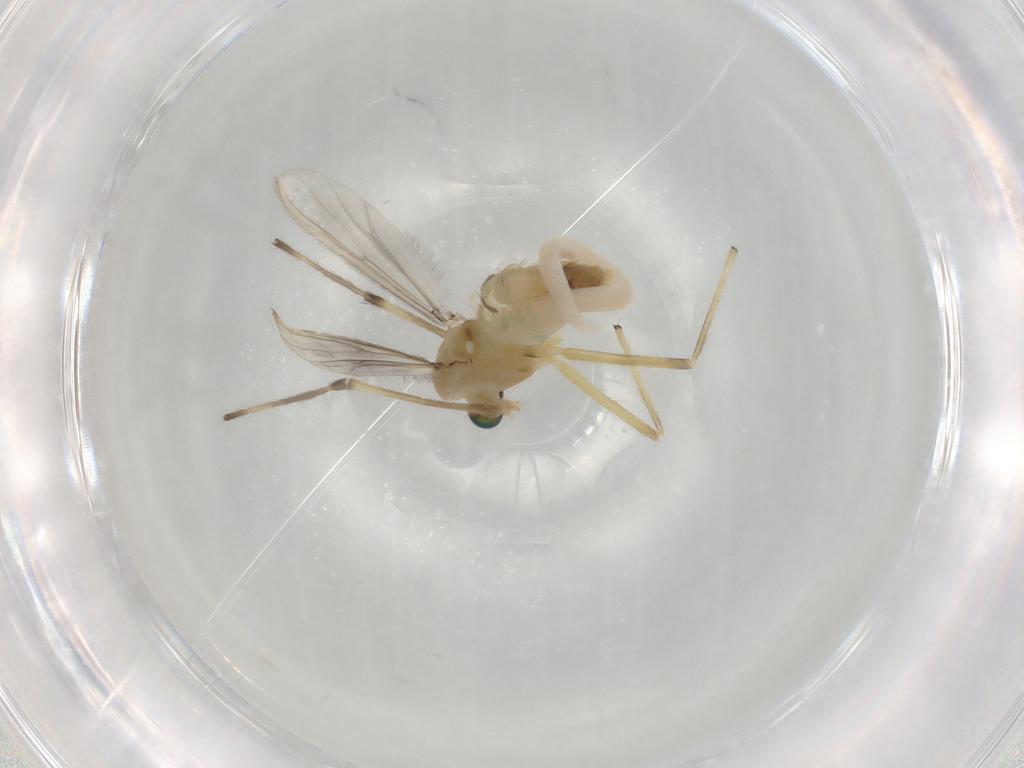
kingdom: Animalia
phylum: Arthropoda
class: Insecta
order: Diptera
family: Chironomidae
